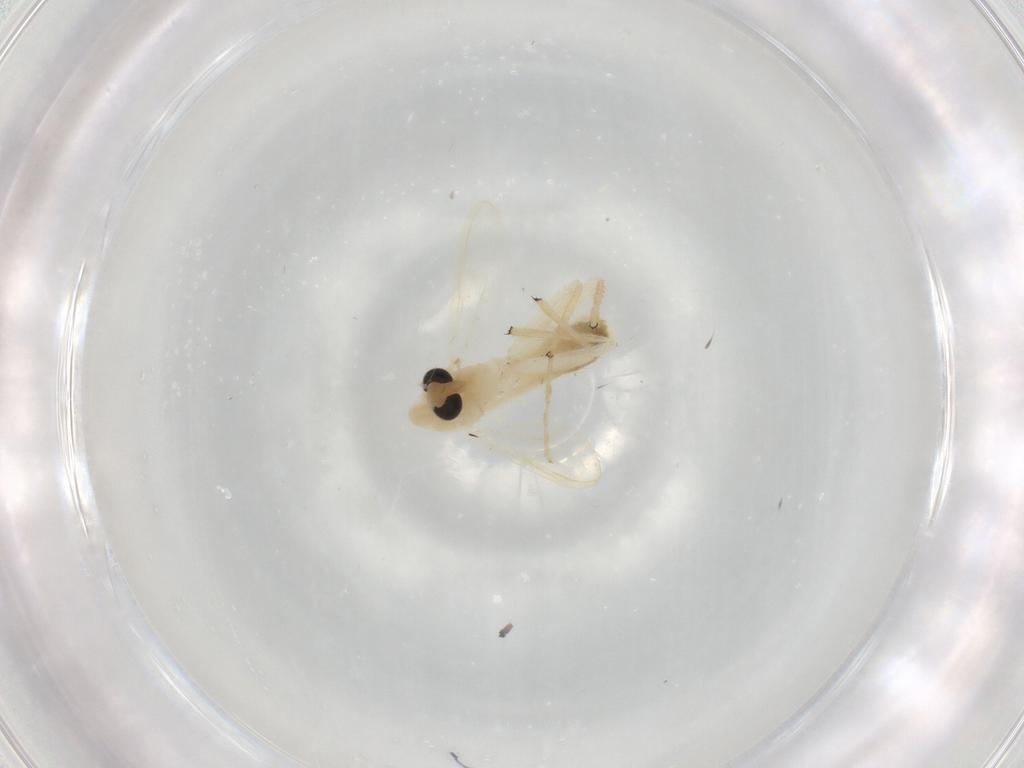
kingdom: Animalia
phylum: Arthropoda
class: Insecta
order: Diptera
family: Chironomidae
